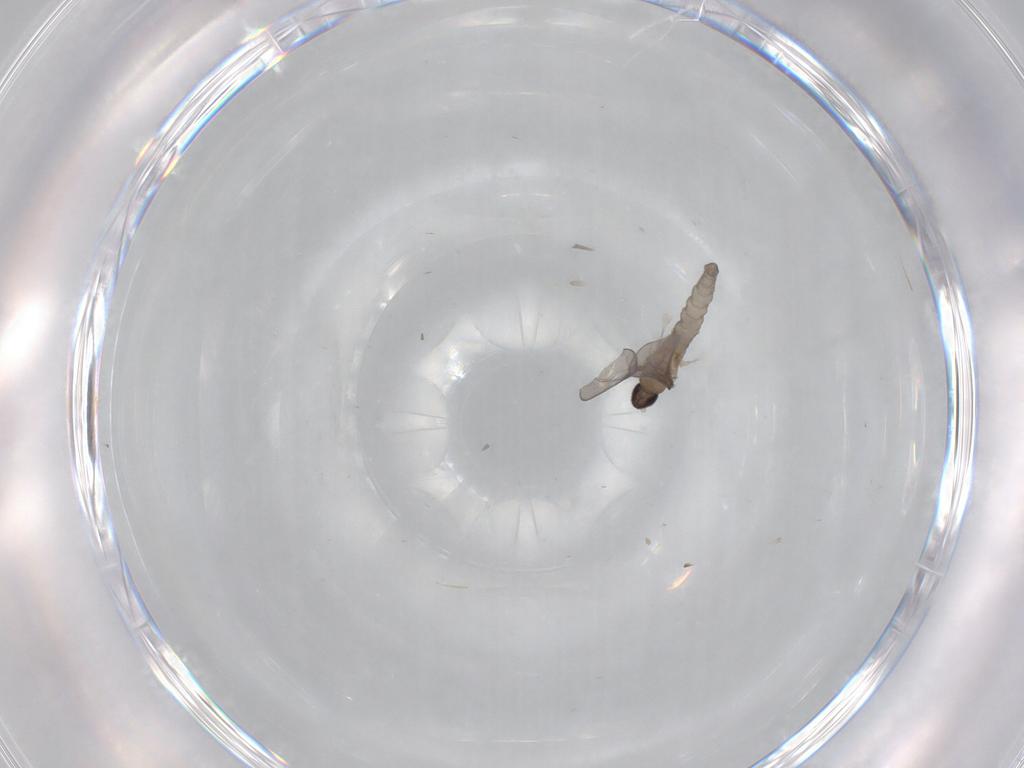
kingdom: Animalia
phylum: Arthropoda
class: Insecta
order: Diptera
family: Cecidomyiidae
